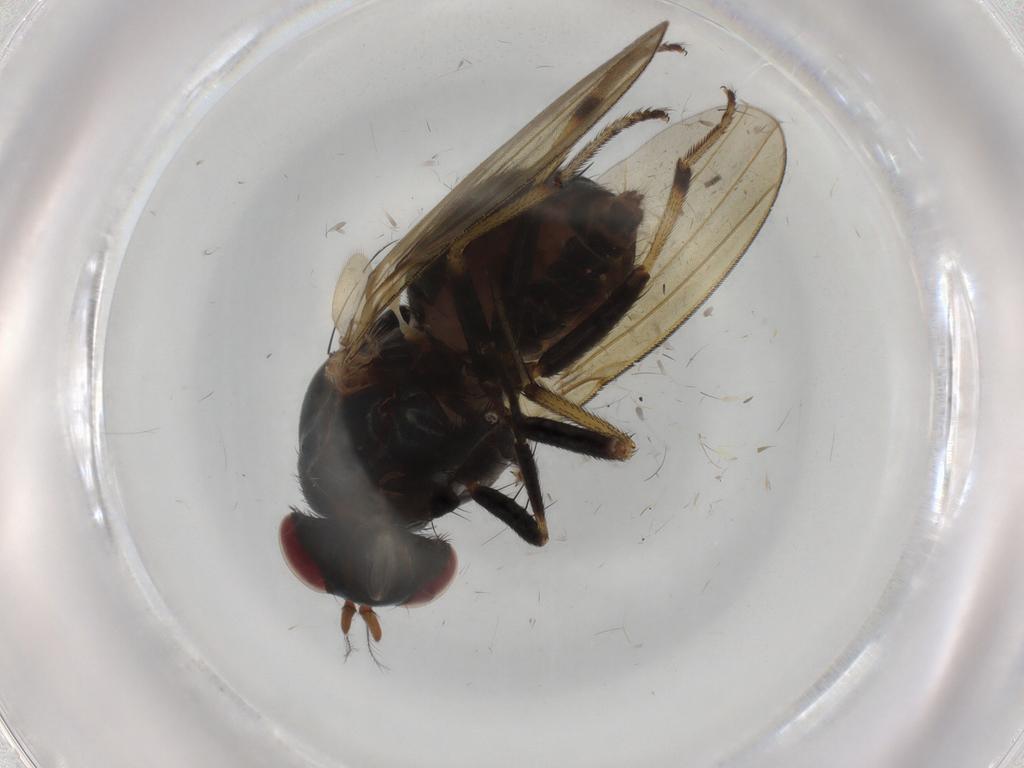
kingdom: Animalia
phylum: Arthropoda
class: Insecta
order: Diptera
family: Sciaridae
